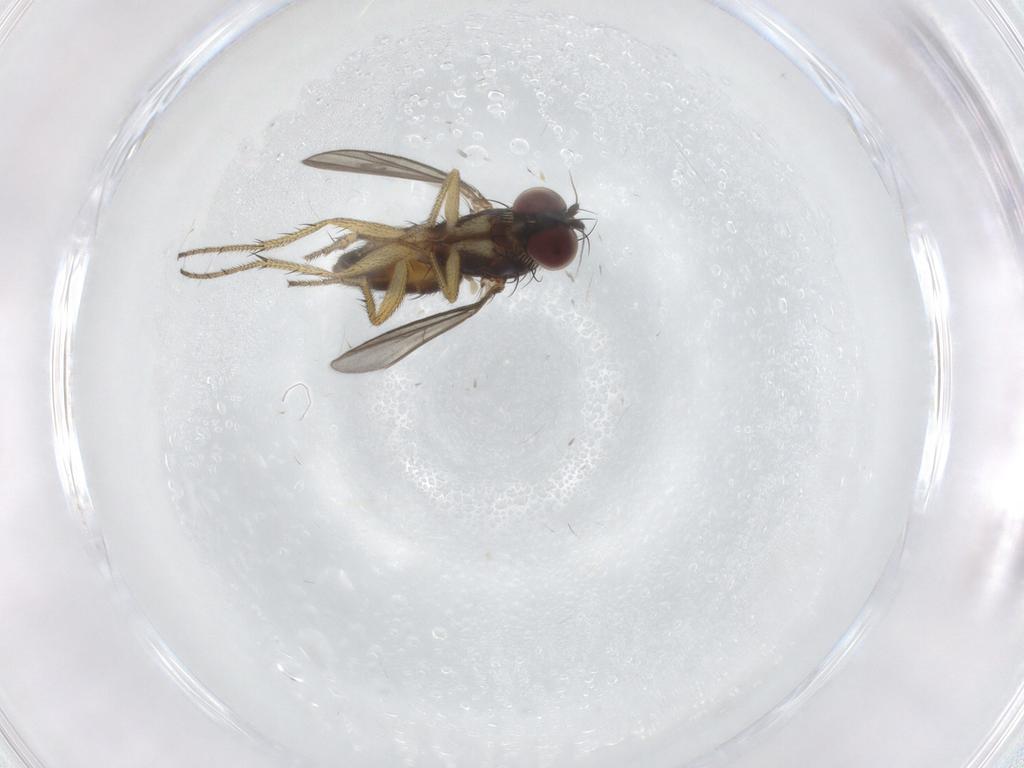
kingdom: Animalia
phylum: Arthropoda
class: Insecta
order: Diptera
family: Dolichopodidae
